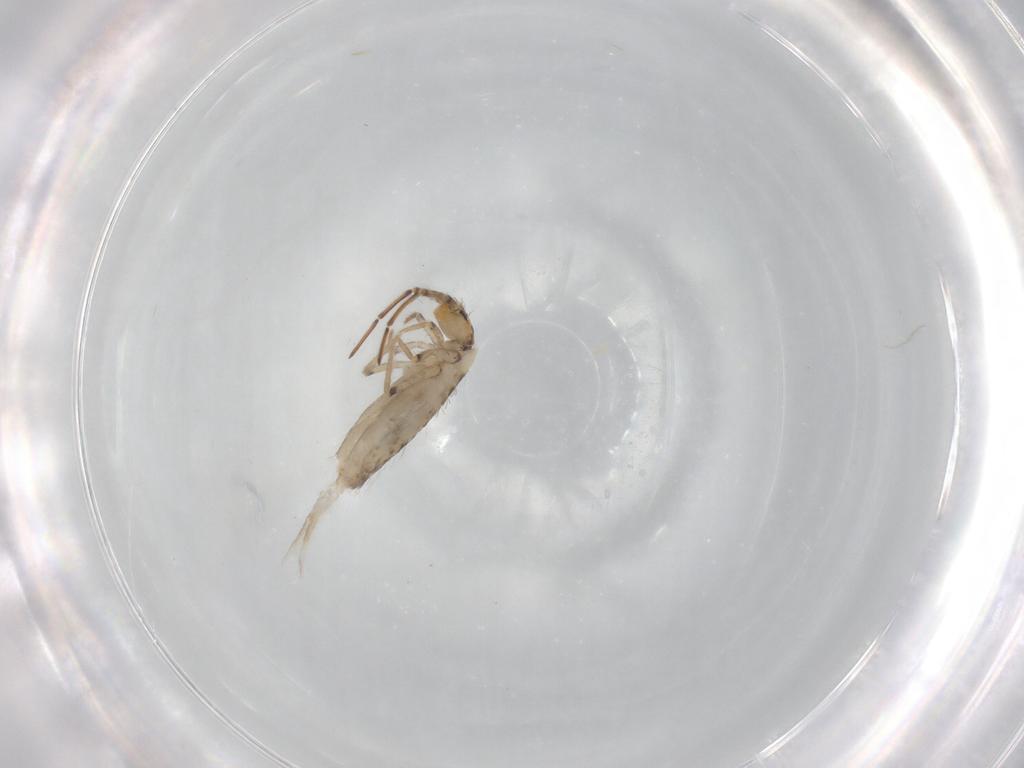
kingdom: Animalia
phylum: Arthropoda
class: Collembola
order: Entomobryomorpha
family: Entomobryidae
